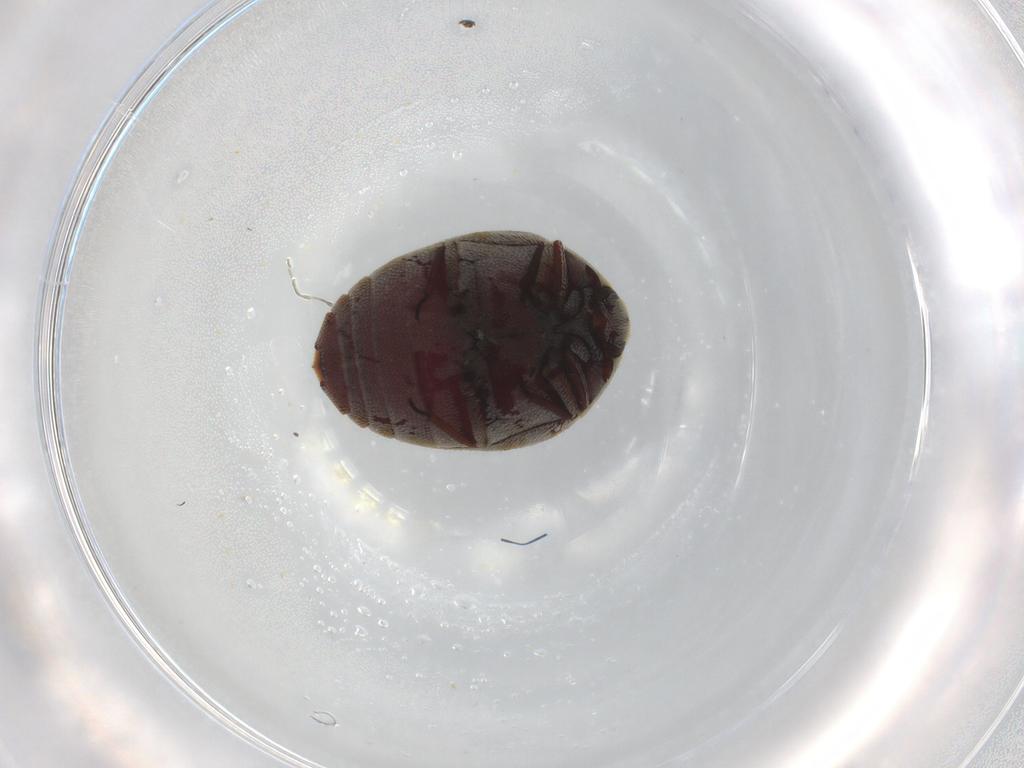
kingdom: Animalia
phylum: Arthropoda
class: Insecta
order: Coleoptera
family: Dermestidae
